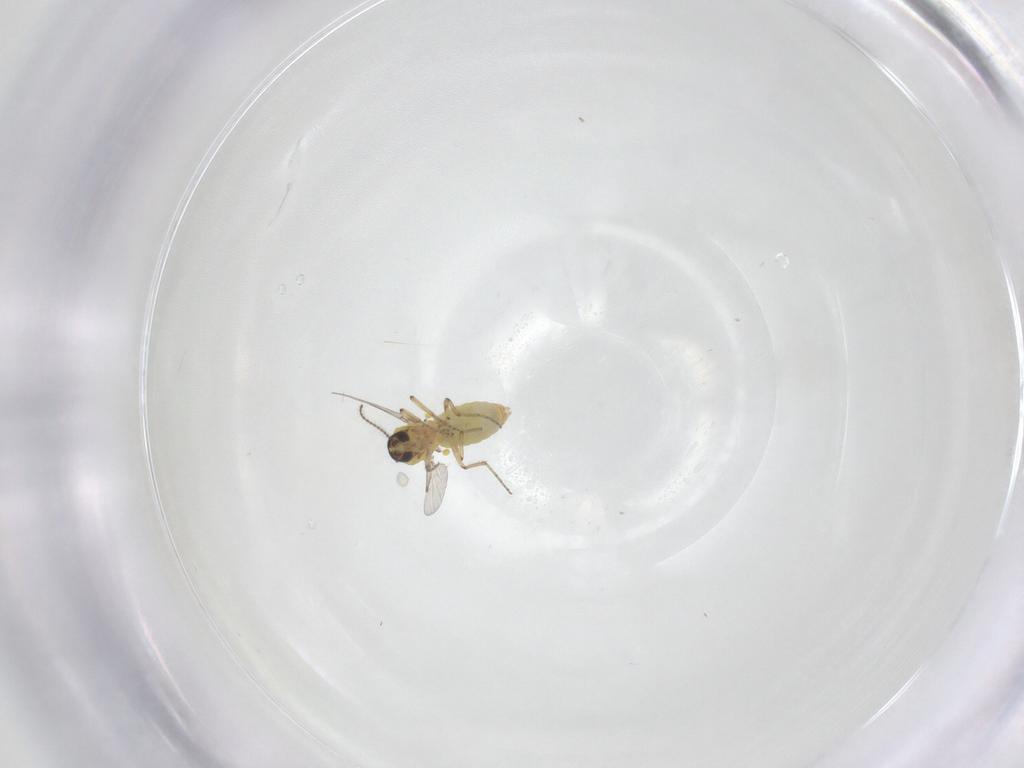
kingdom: Animalia
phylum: Arthropoda
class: Insecta
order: Diptera
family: Ceratopogonidae
